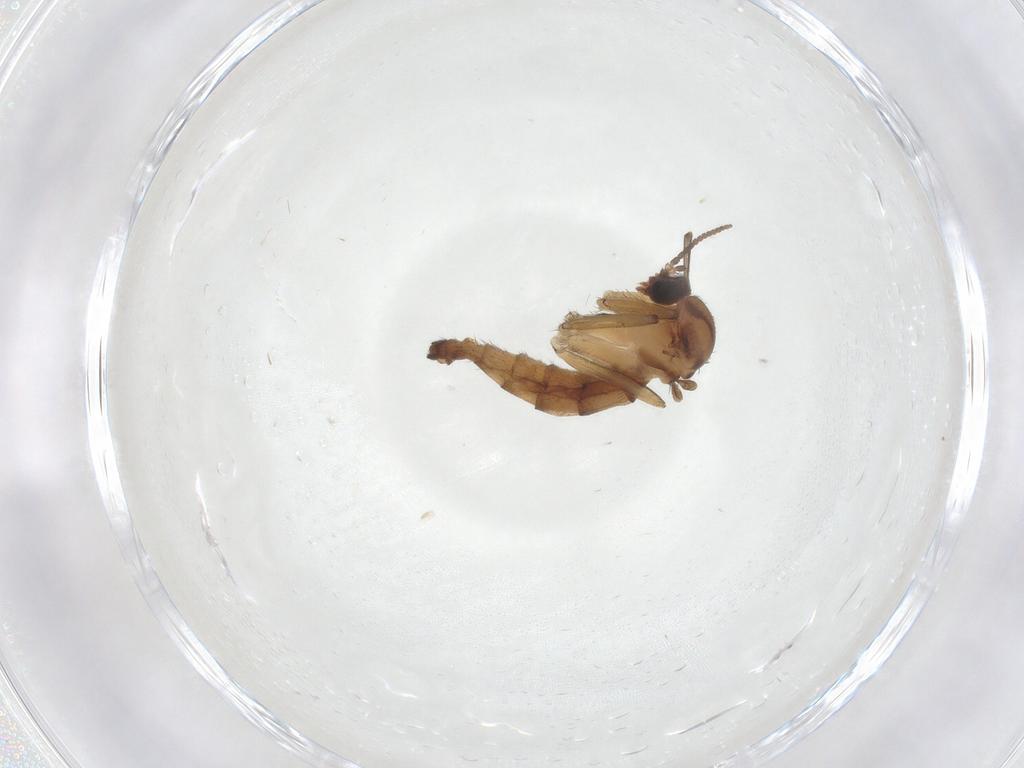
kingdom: Animalia
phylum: Arthropoda
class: Insecta
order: Diptera
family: Keroplatidae
